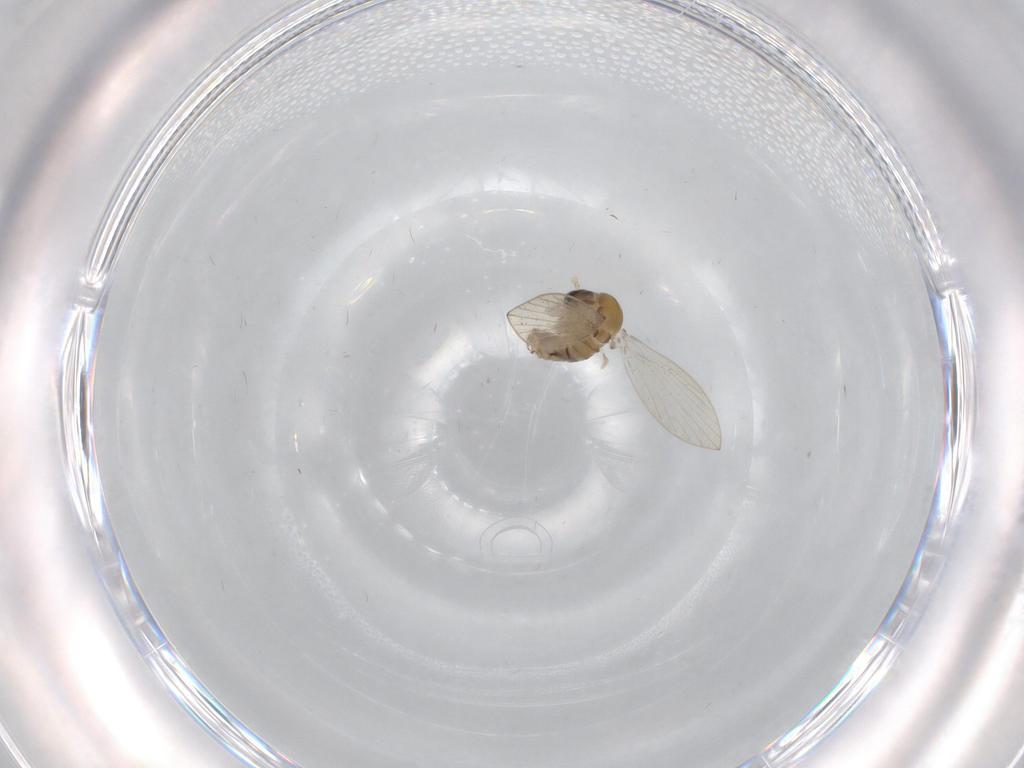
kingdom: Animalia
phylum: Arthropoda
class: Insecta
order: Diptera
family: Psychodidae
